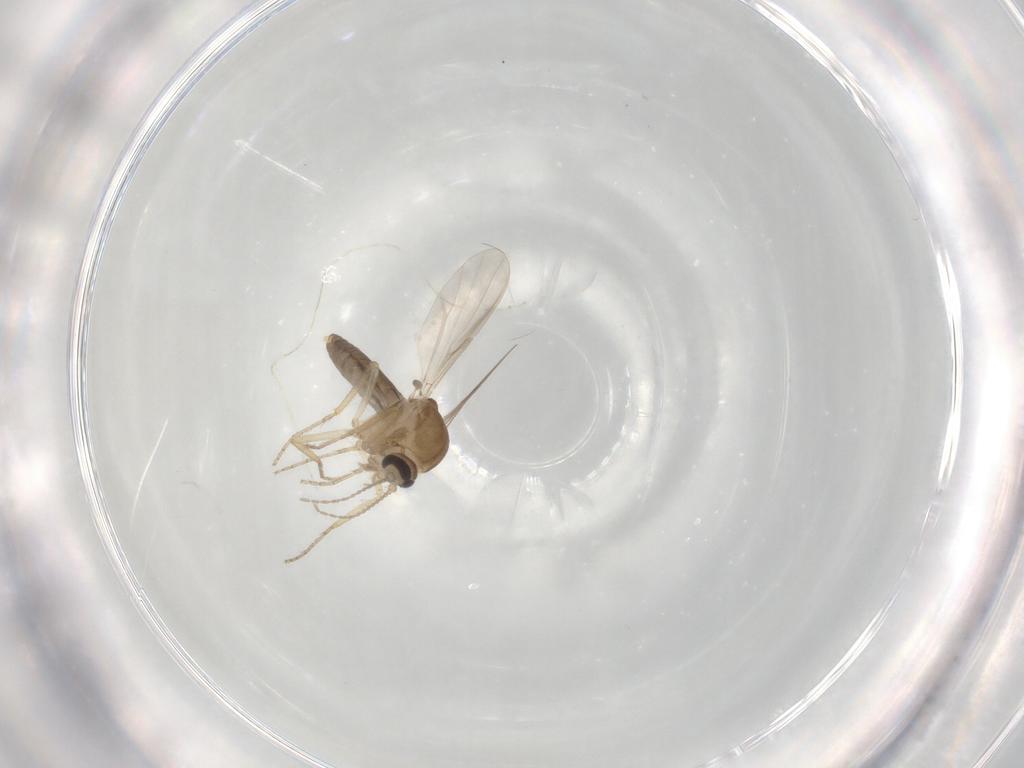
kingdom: Animalia
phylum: Arthropoda
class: Insecta
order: Diptera
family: Ceratopogonidae
